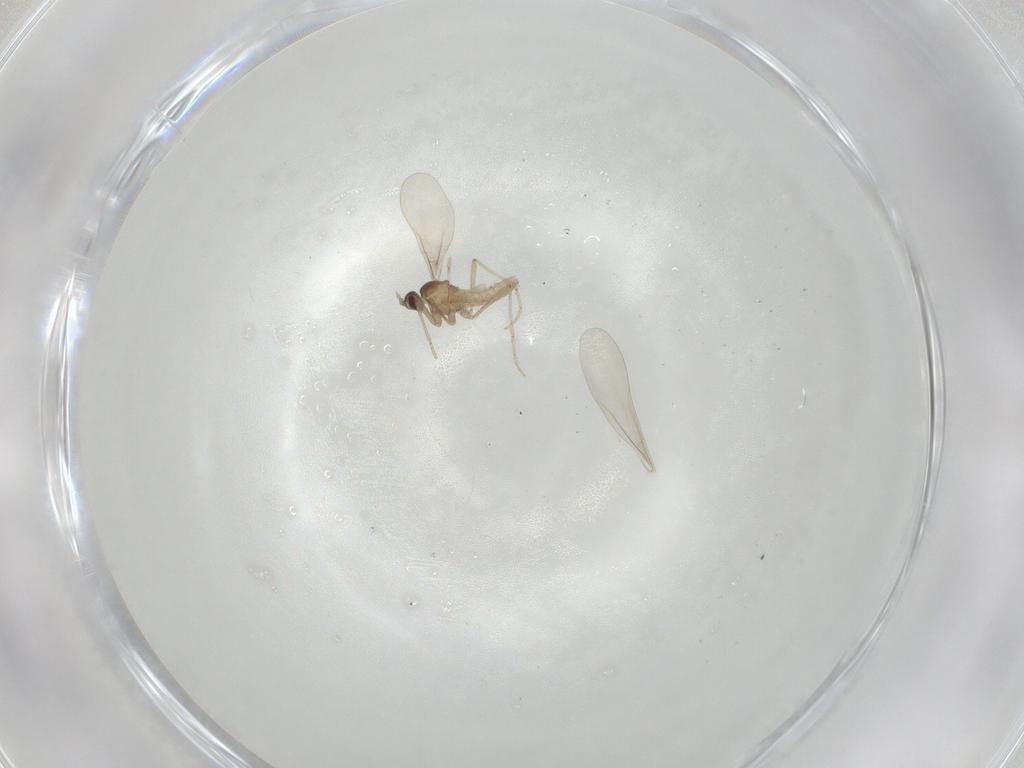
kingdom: Animalia
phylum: Arthropoda
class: Insecta
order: Diptera
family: Cecidomyiidae
